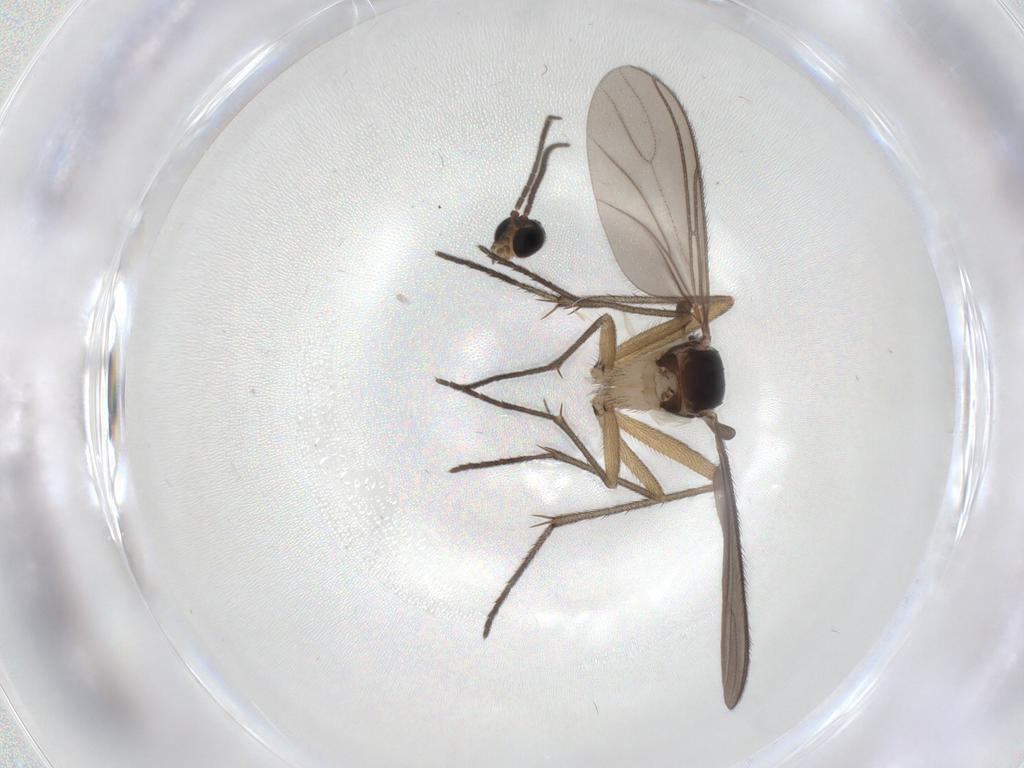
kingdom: Animalia
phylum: Arthropoda
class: Insecta
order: Diptera
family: Sciaridae
